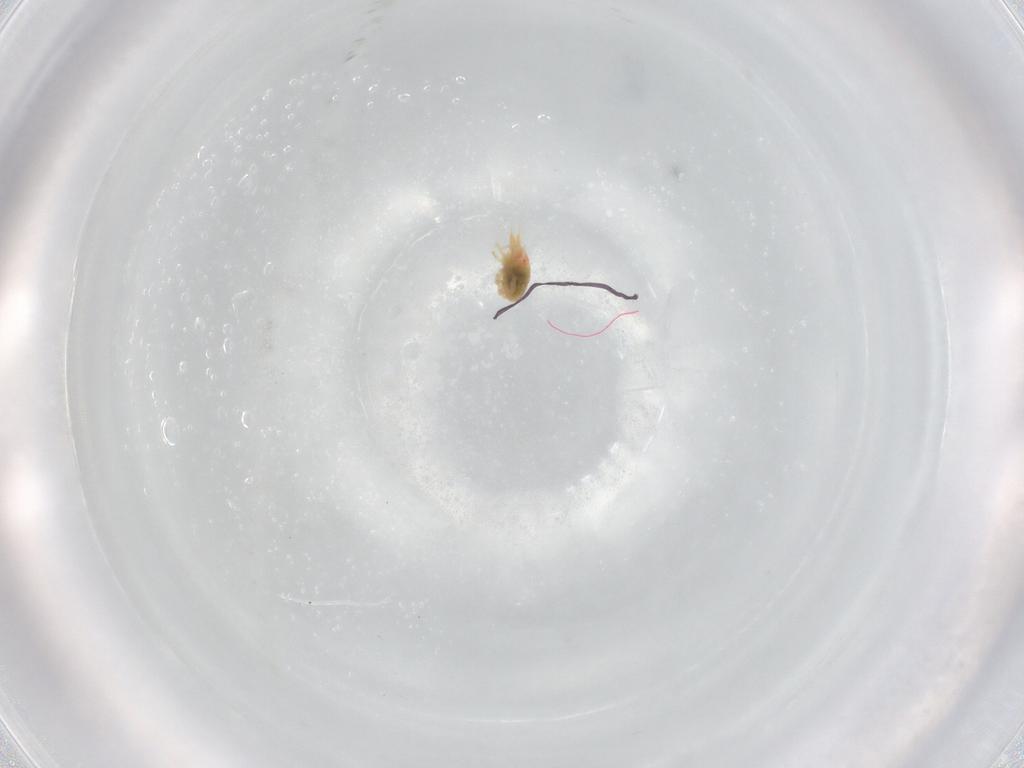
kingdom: Animalia
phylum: Arthropoda
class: Arachnida
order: Trombidiformes
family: Bdellidae
